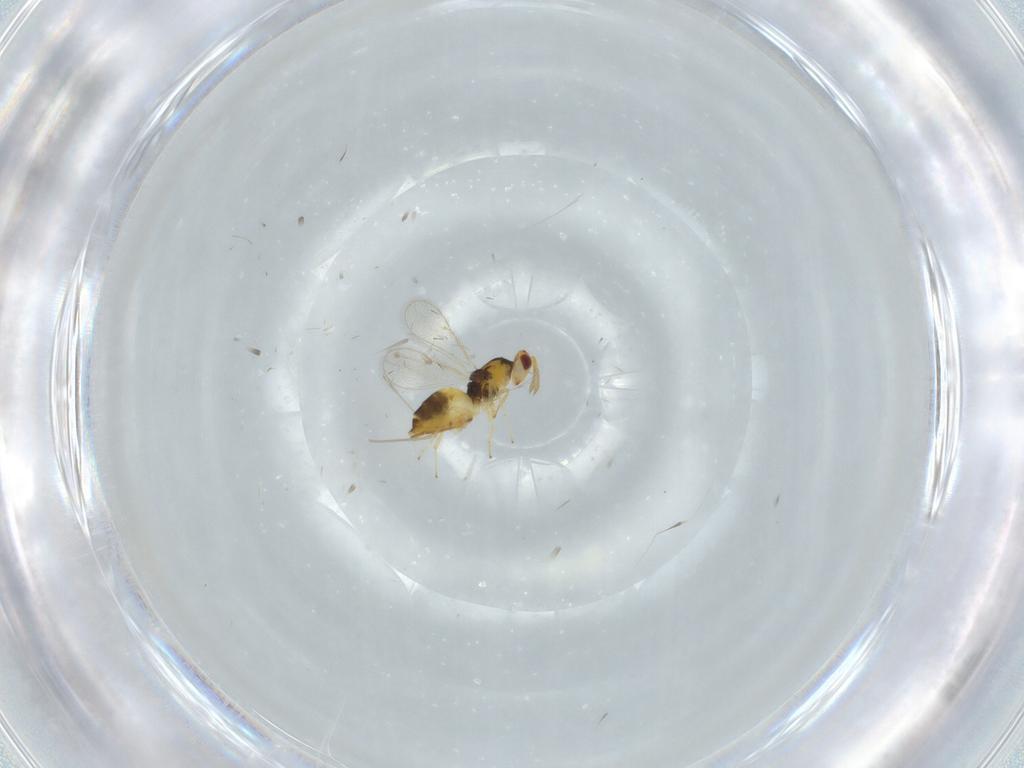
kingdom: Animalia
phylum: Arthropoda
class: Insecta
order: Hymenoptera
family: Eulophidae
